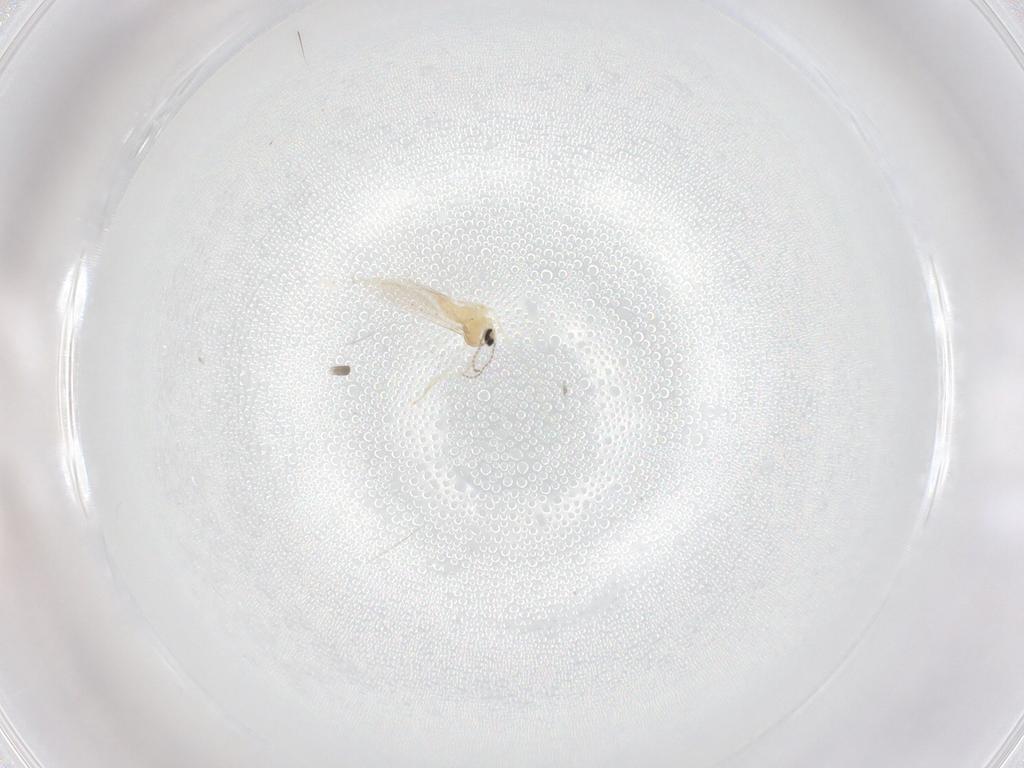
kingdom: Animalia
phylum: Arthropoda
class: Insecta
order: Diptera
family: Cecidomyiidae
